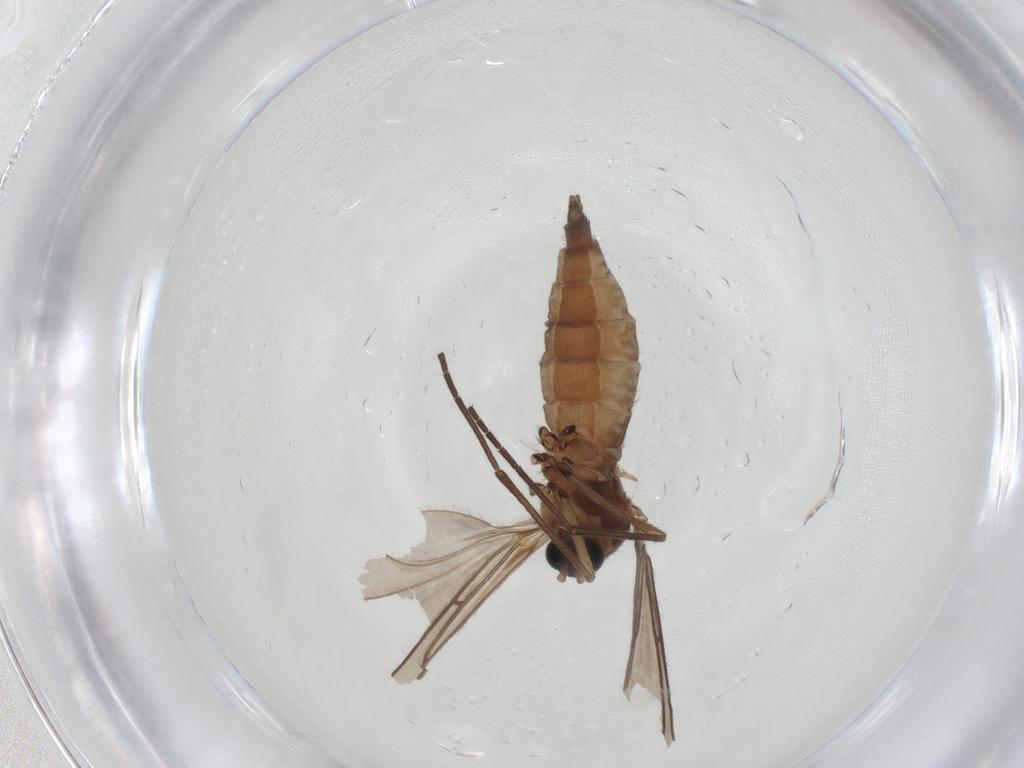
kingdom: Animalia
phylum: Arthropoda
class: Insecta
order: Diptera
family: Sciaridae
